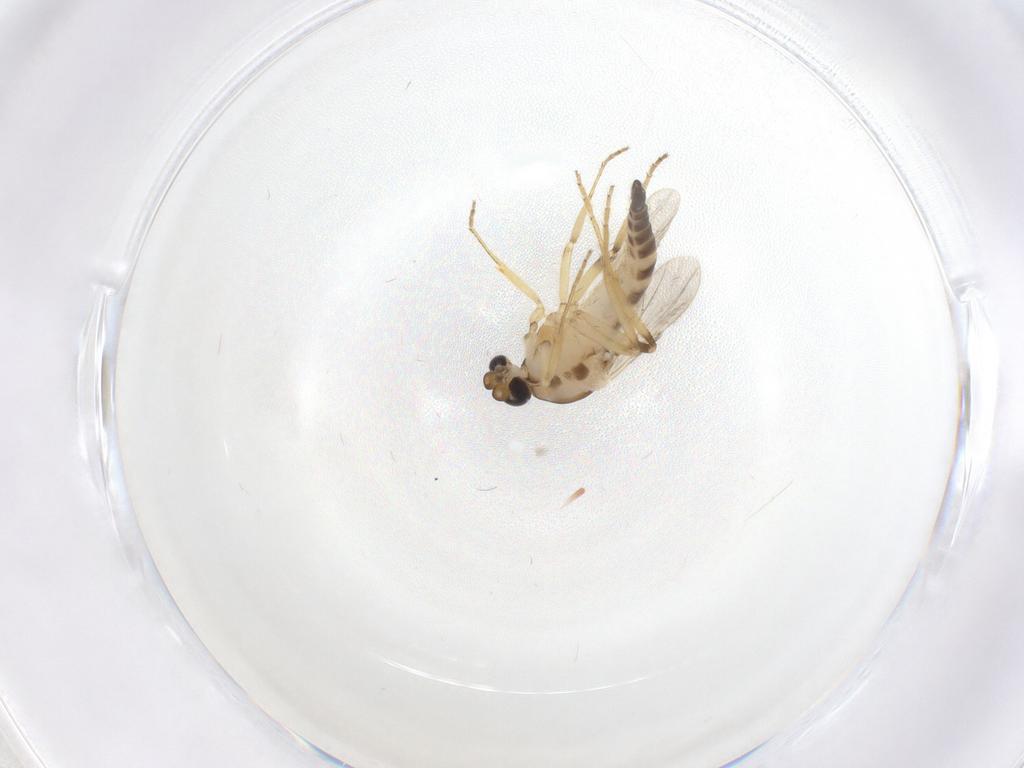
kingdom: Animalia
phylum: Arthropoda
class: Insecta
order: Diptera
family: Ceratopogonidae
